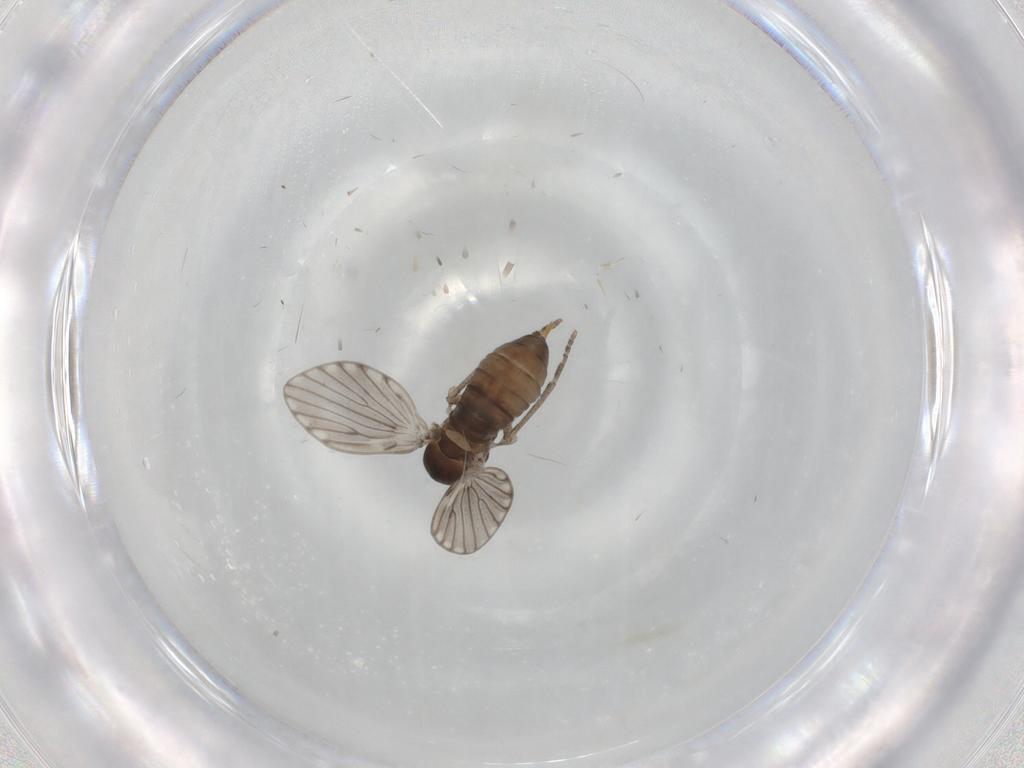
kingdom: Animalia
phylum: Arthropoda
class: Insecta
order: Diptera
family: Psychodidae
